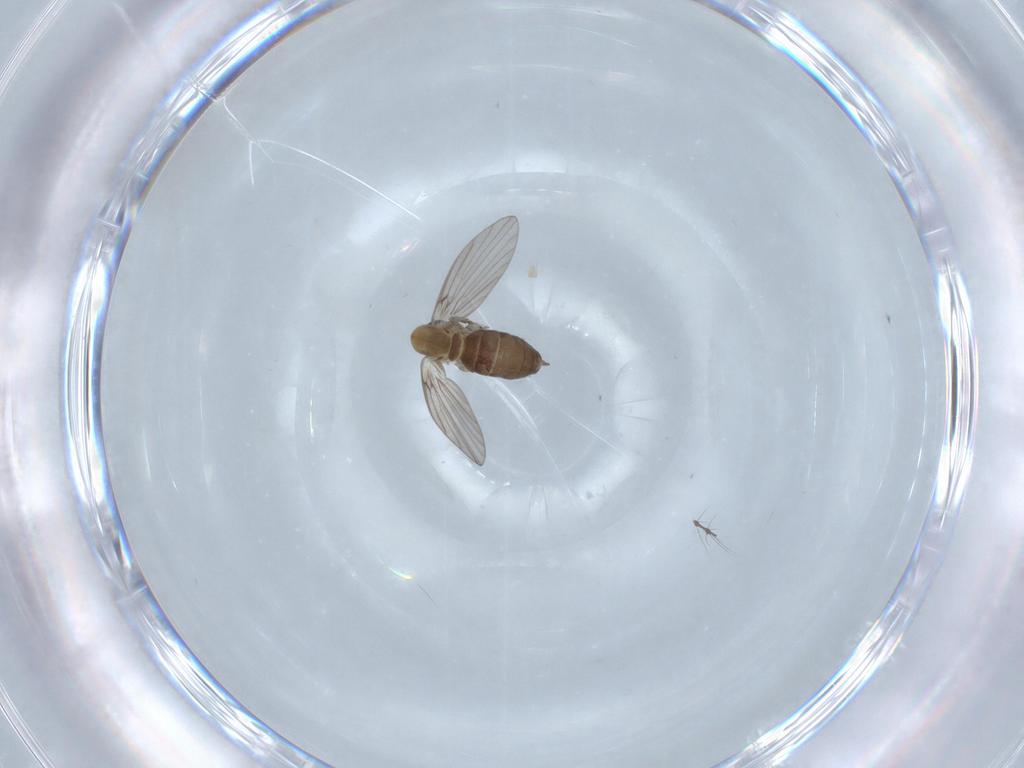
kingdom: Animalia
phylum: Arthropoda
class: Insecta
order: Diptera
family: Psychodidae
